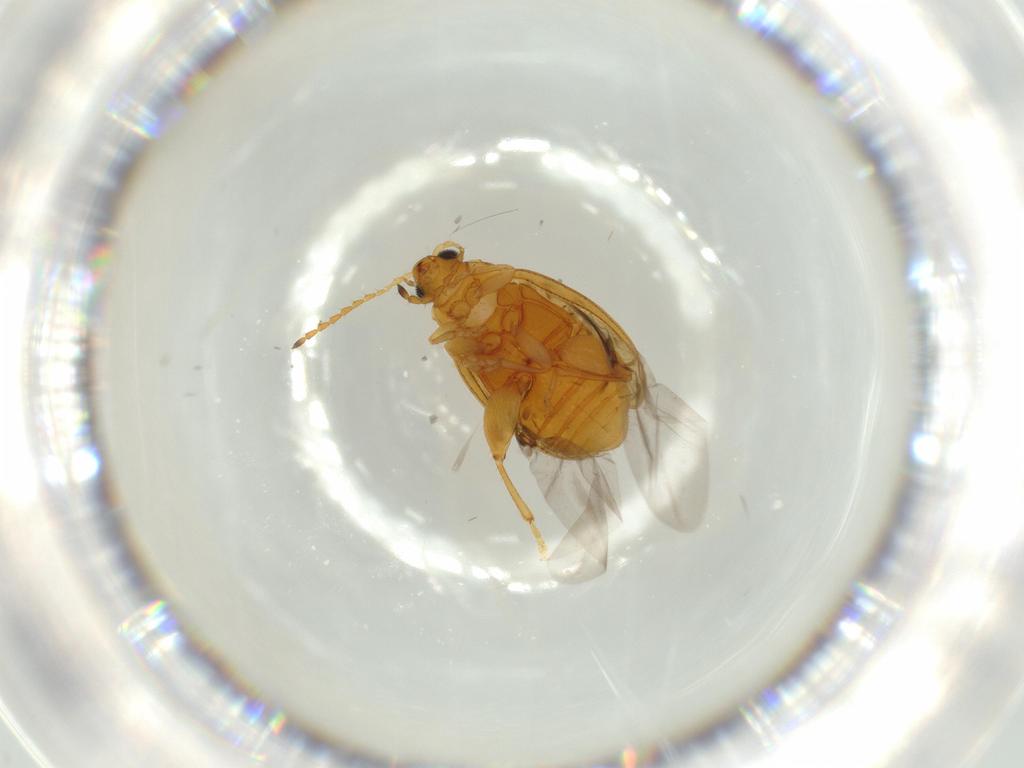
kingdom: Animalia
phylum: Arthropoda
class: Insecta
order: Coleoptera
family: Chrysomelidae
